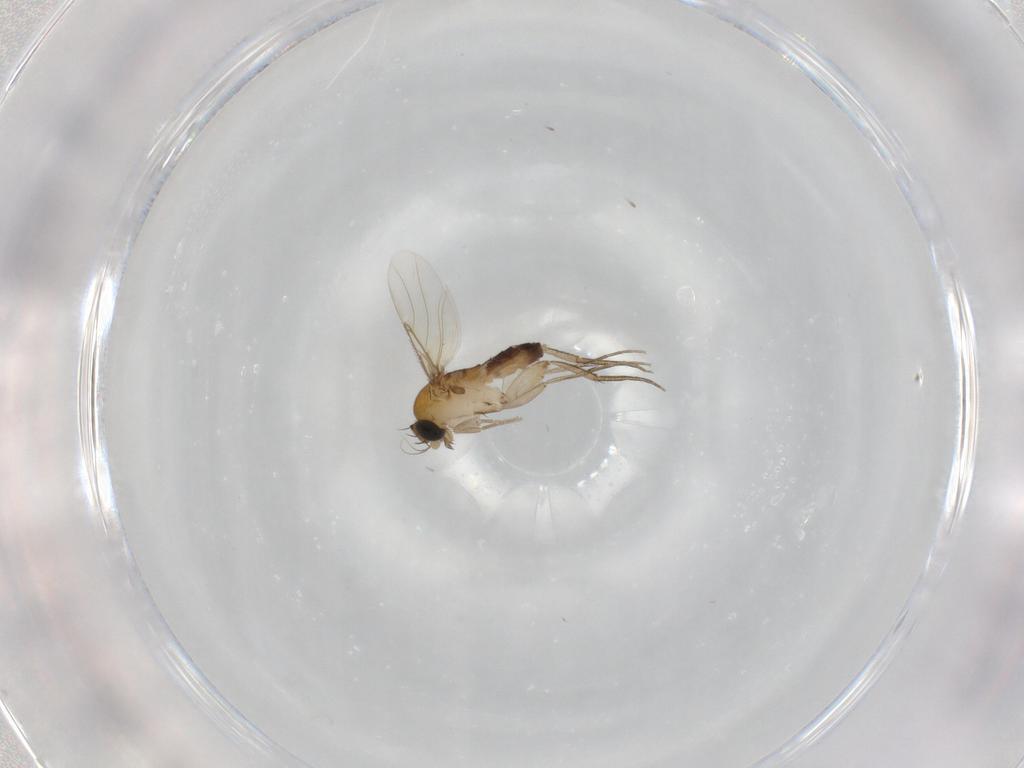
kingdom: Animalia
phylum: Arthropoda
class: Insecta
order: Diptera
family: Phoridae
